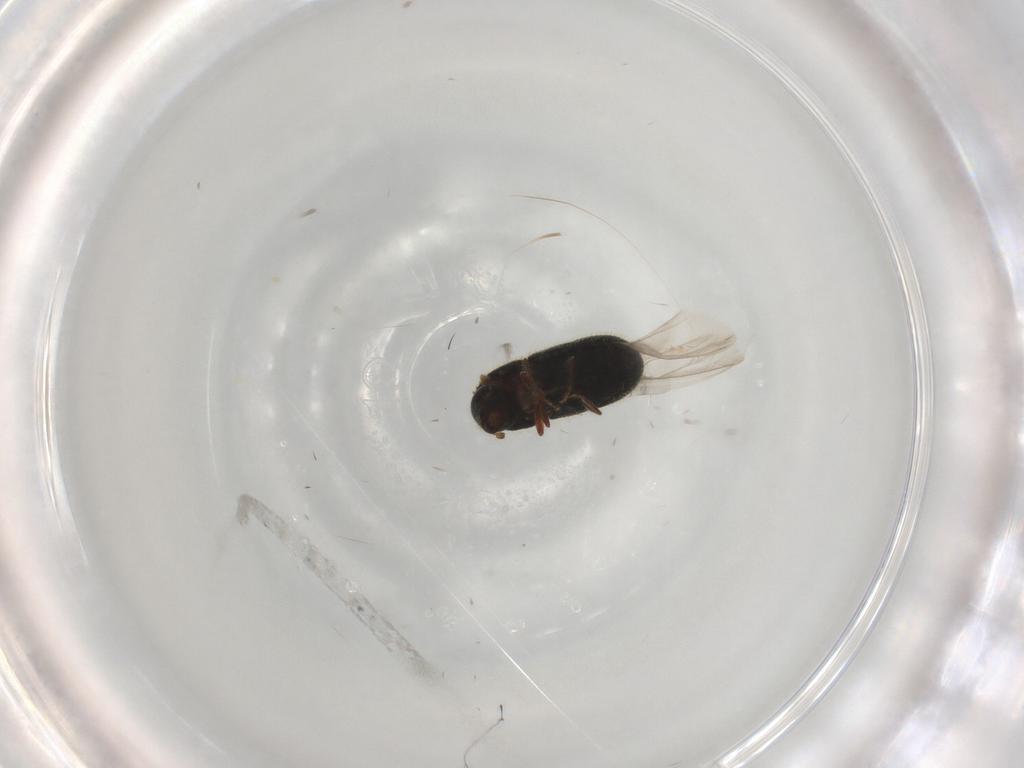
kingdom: Animalia
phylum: Arthropoda
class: Insecta
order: Coleoptera
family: Curculionidae
